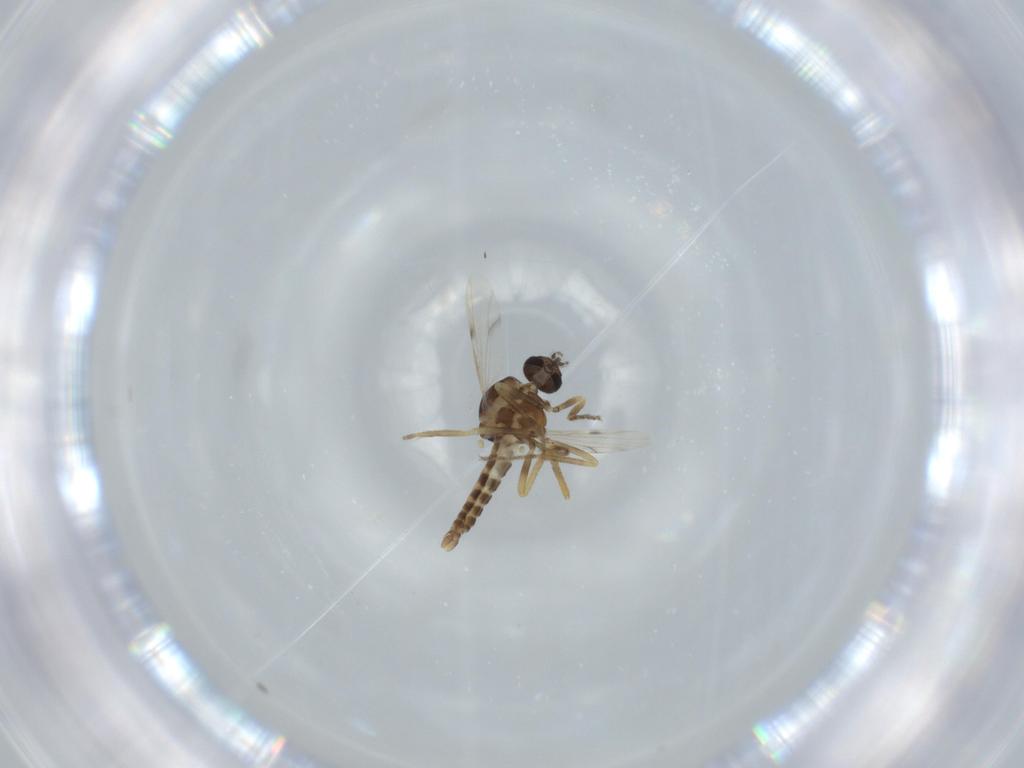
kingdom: Animalia
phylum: Arthropoda
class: Insecta
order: Diptera
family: Ceratopogonidae
